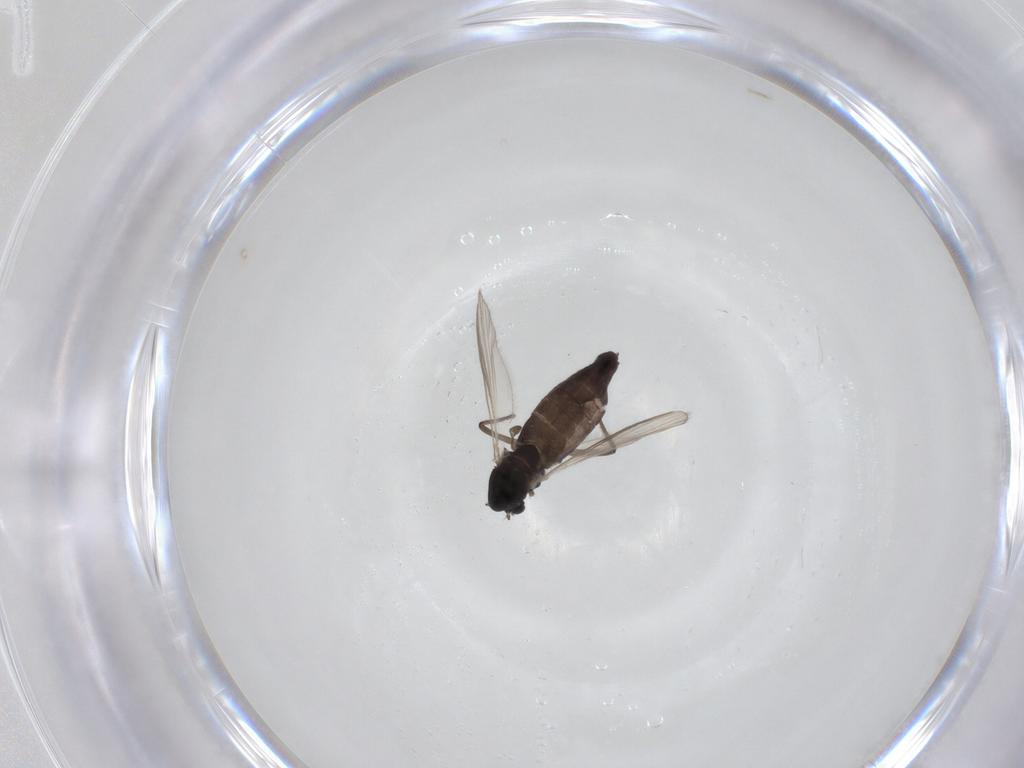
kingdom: Animalia
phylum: Arthropoda
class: Insecta
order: Diptera
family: Chironomidae
